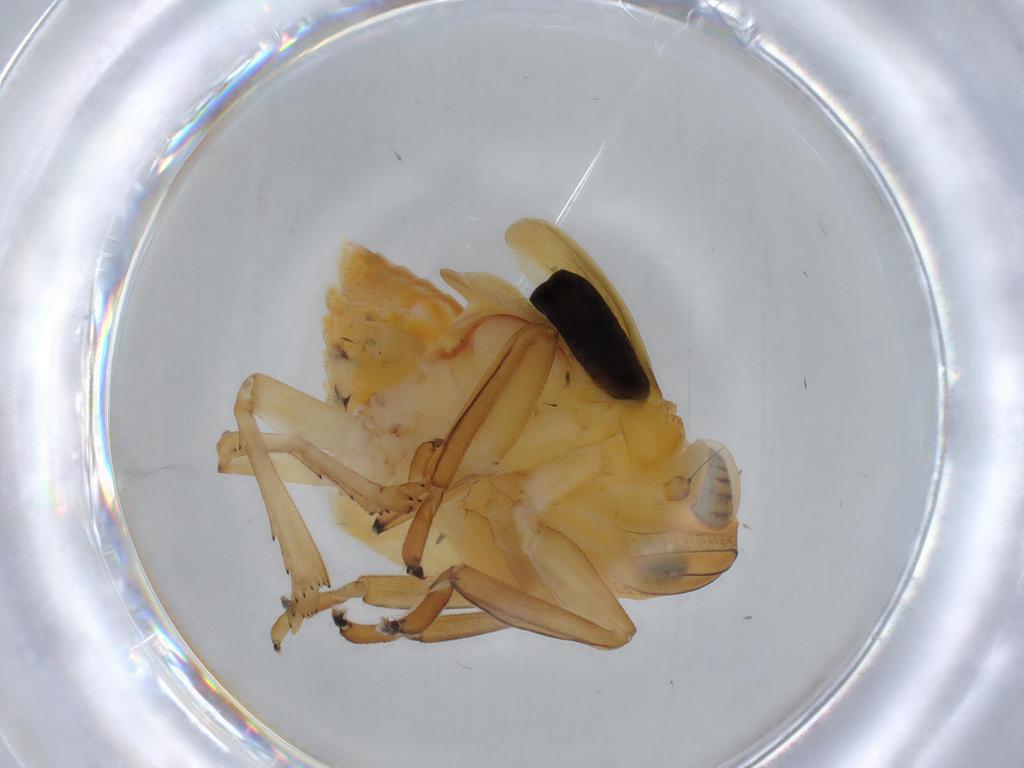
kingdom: Animalia
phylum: Arthropoda
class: Insecta
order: Hemiptera
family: Issidae
